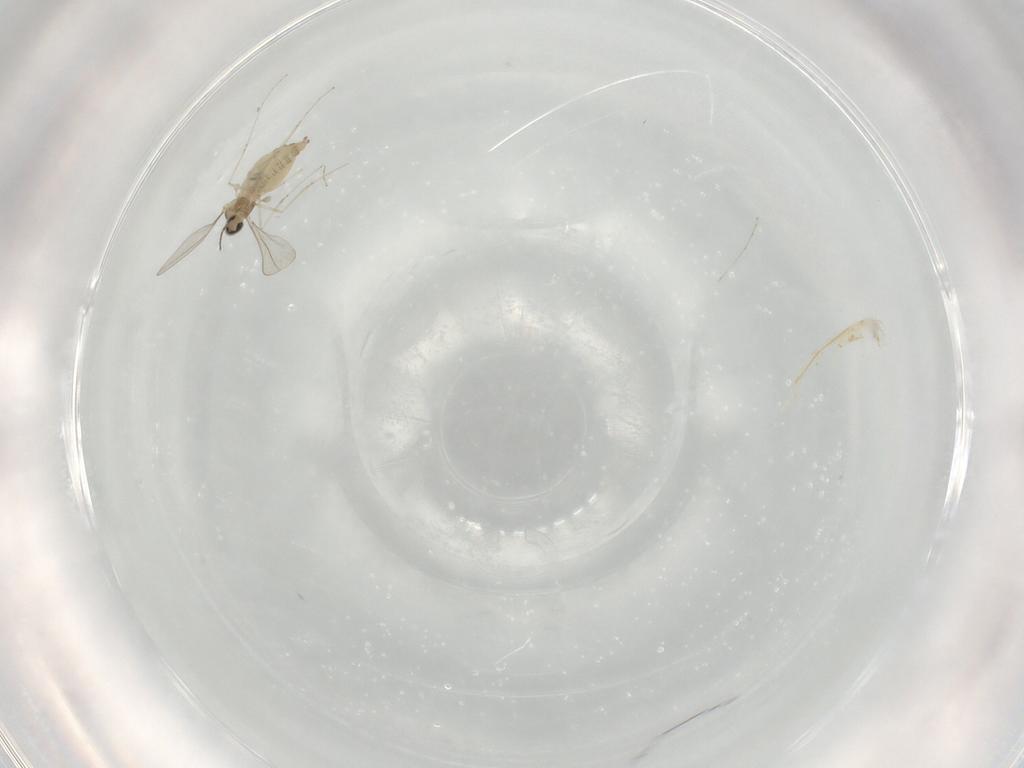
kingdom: Animalia
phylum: Arthropoda
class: Insecta
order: Diptera
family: Cecidomyiidae
